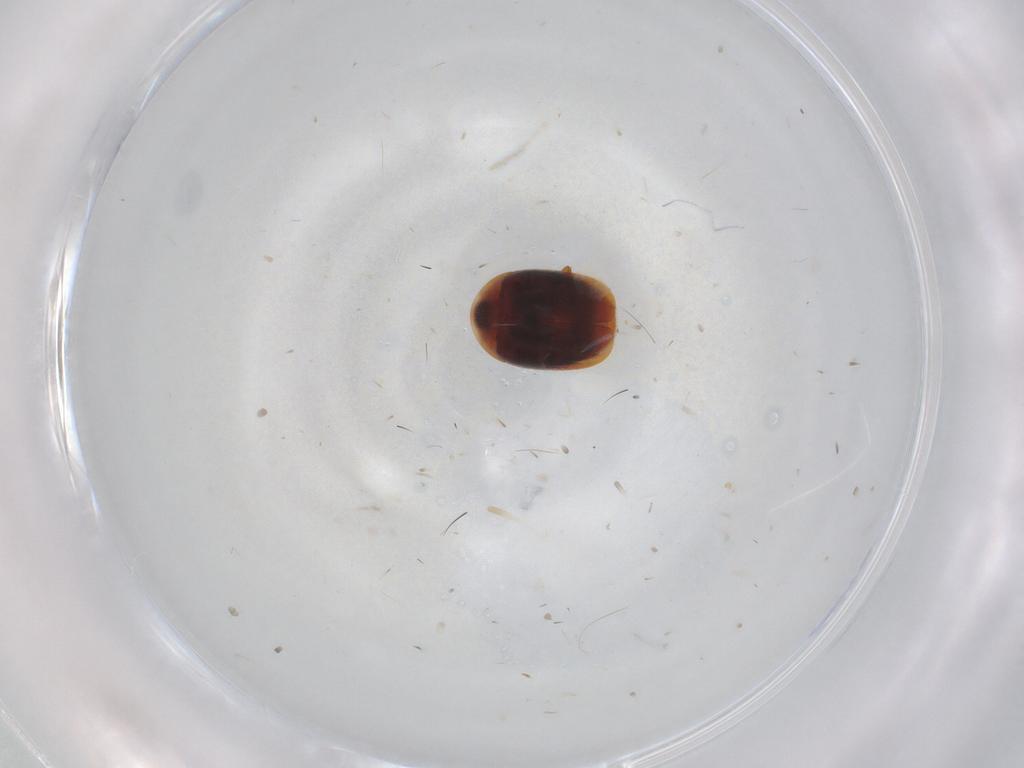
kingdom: Animalia
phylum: Arthropoda
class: Insecta
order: Coleoptera
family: Corylophidae
